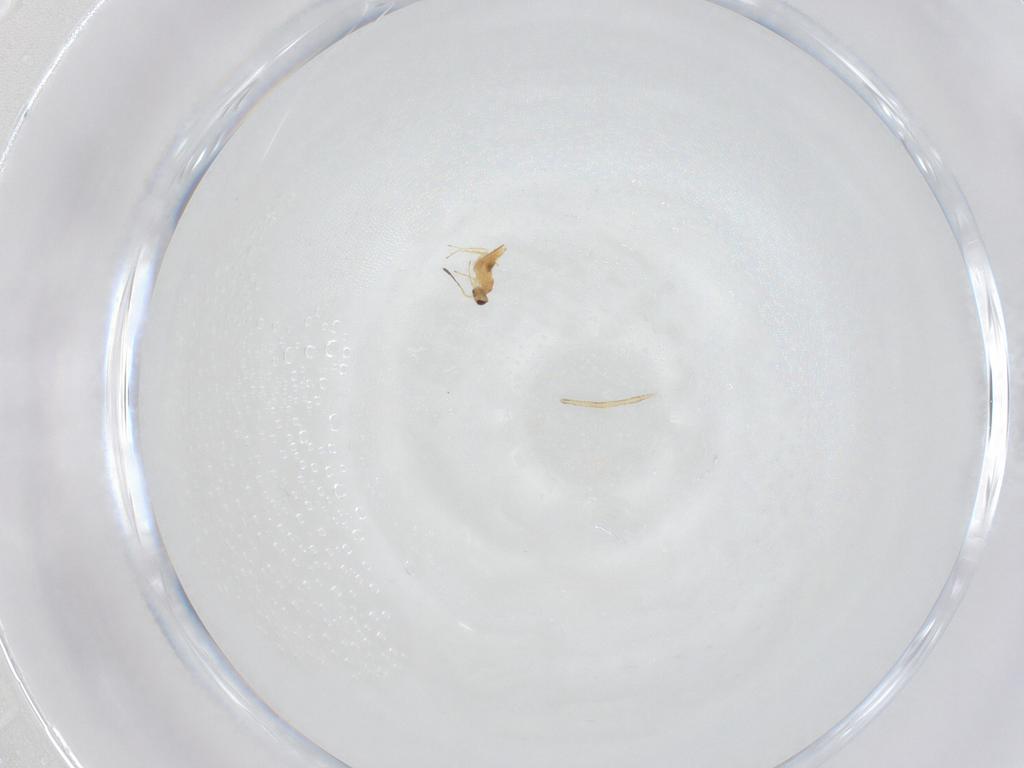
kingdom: Animalia
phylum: Arthropoda
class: Insecta
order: Hymenoptera
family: Mymaridae
